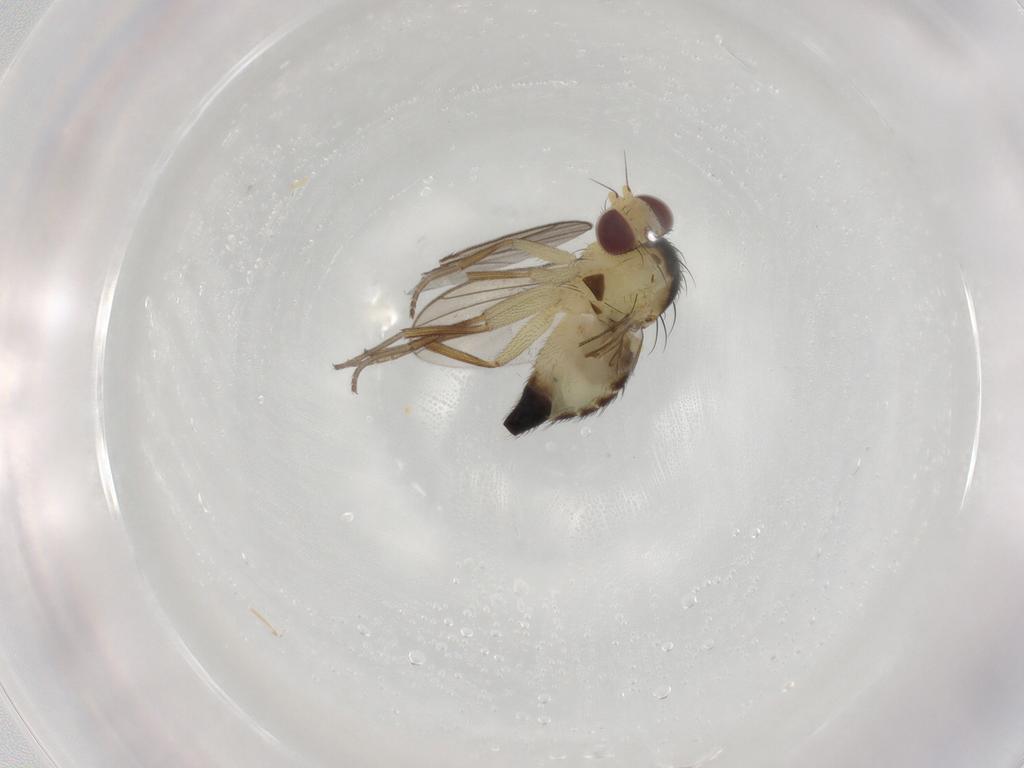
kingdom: Animalia
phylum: Arthropoda
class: Insecta
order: Diptera
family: Agromyzidae
